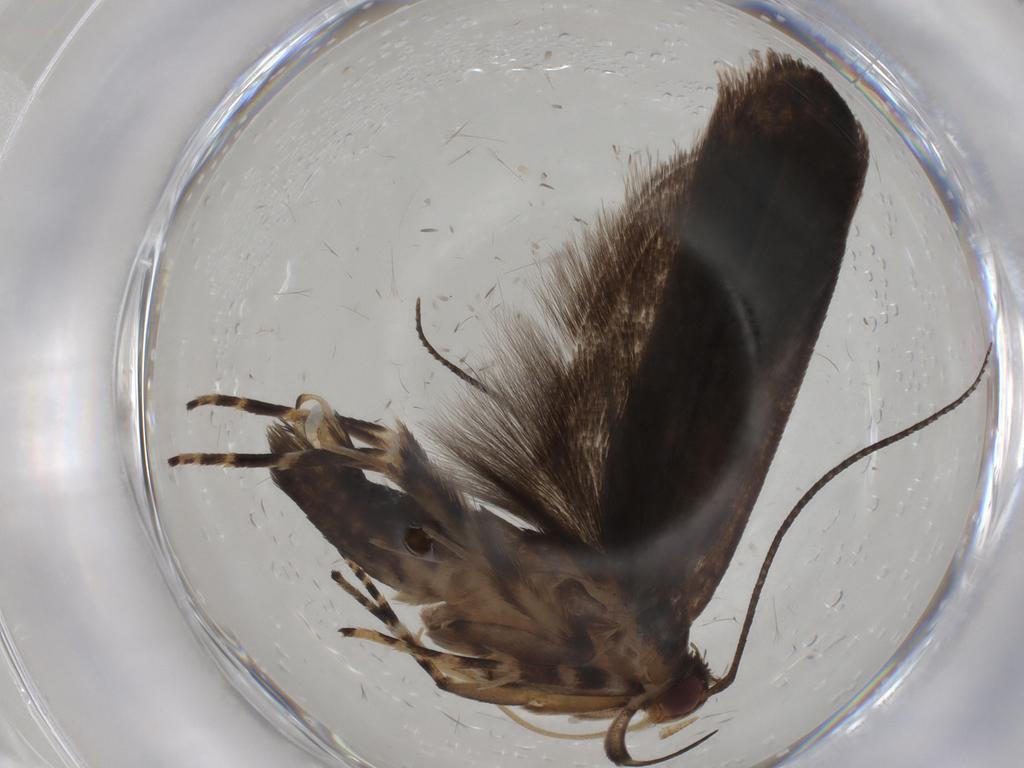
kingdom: Animalia
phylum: Arthropoda
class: Insecta
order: Lepidoptera
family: Crambidae
